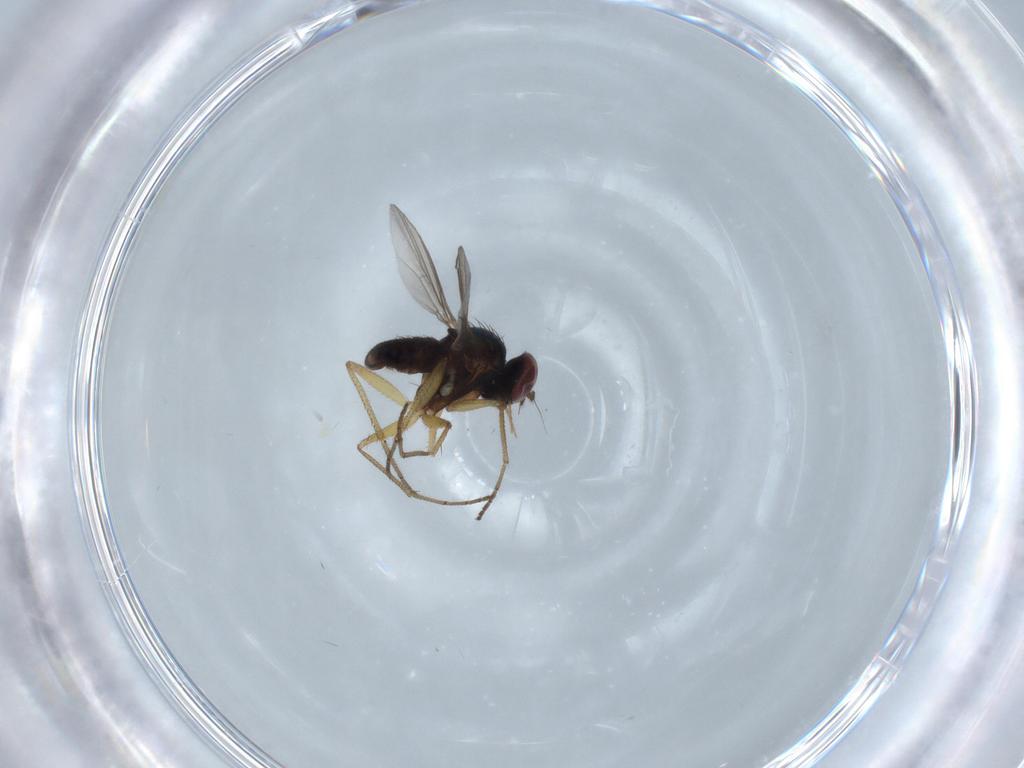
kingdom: Animalia
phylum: Arthropoda
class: Insecta
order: Diptera
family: Dolichopodidae
